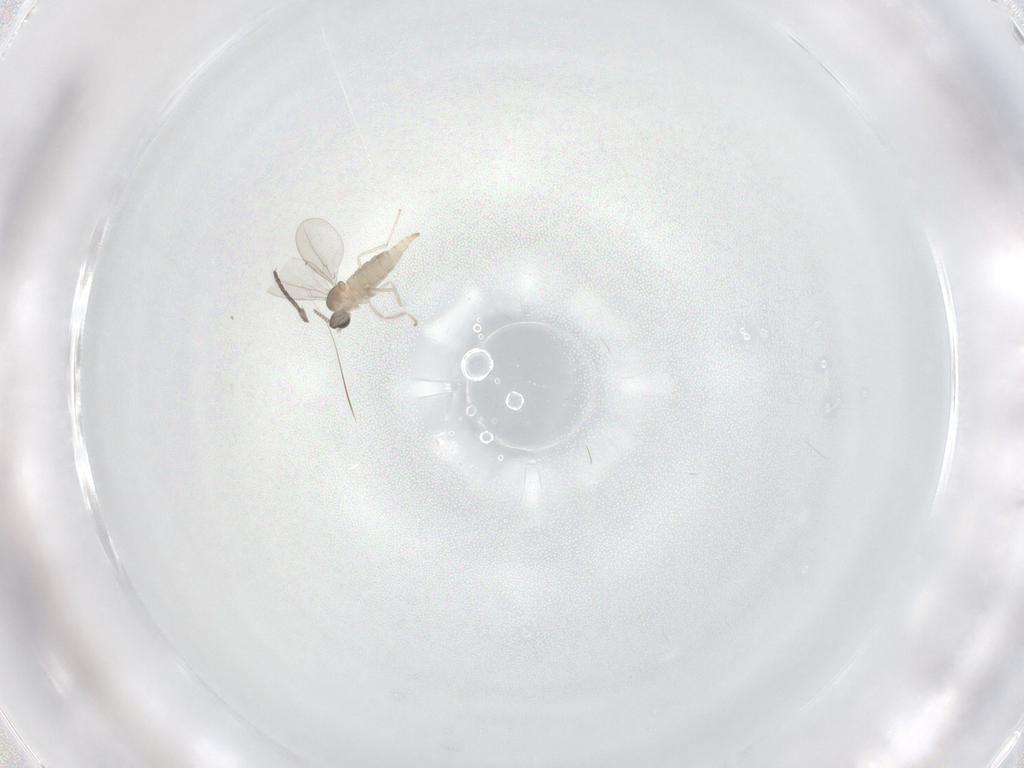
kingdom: Animalia
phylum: Arthropoda
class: Insecta
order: Diptera
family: Cecidomyiidae
